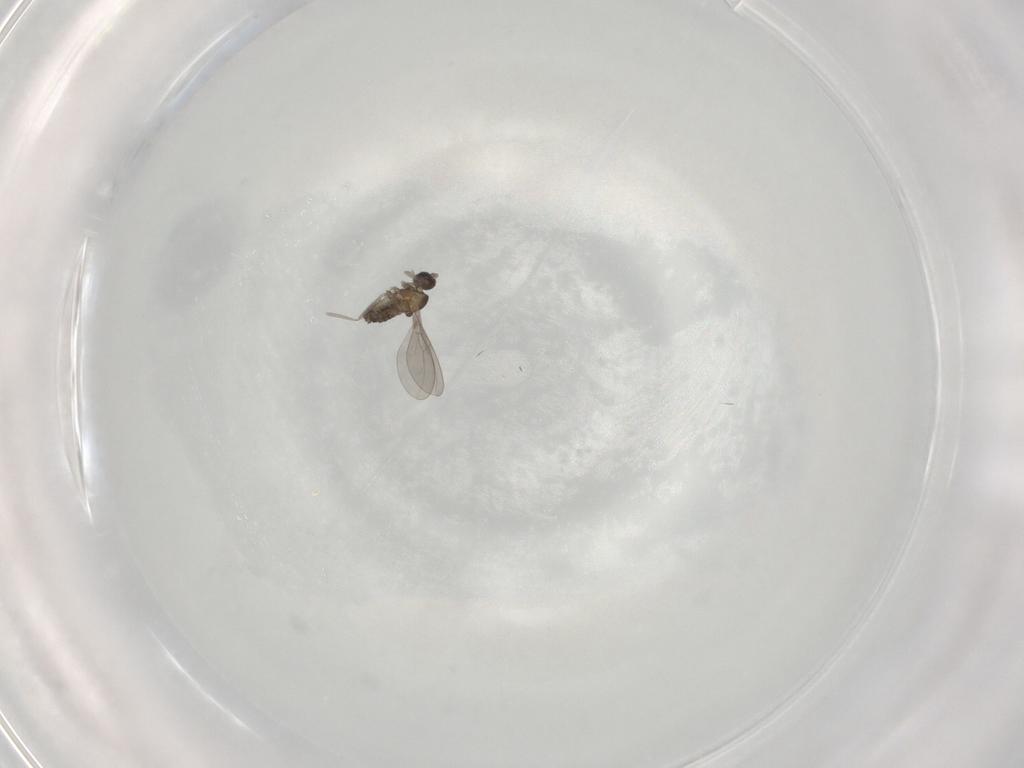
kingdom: Animalia
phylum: Arthropoda
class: Insecta
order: Diptera
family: Cecidomyiidae
